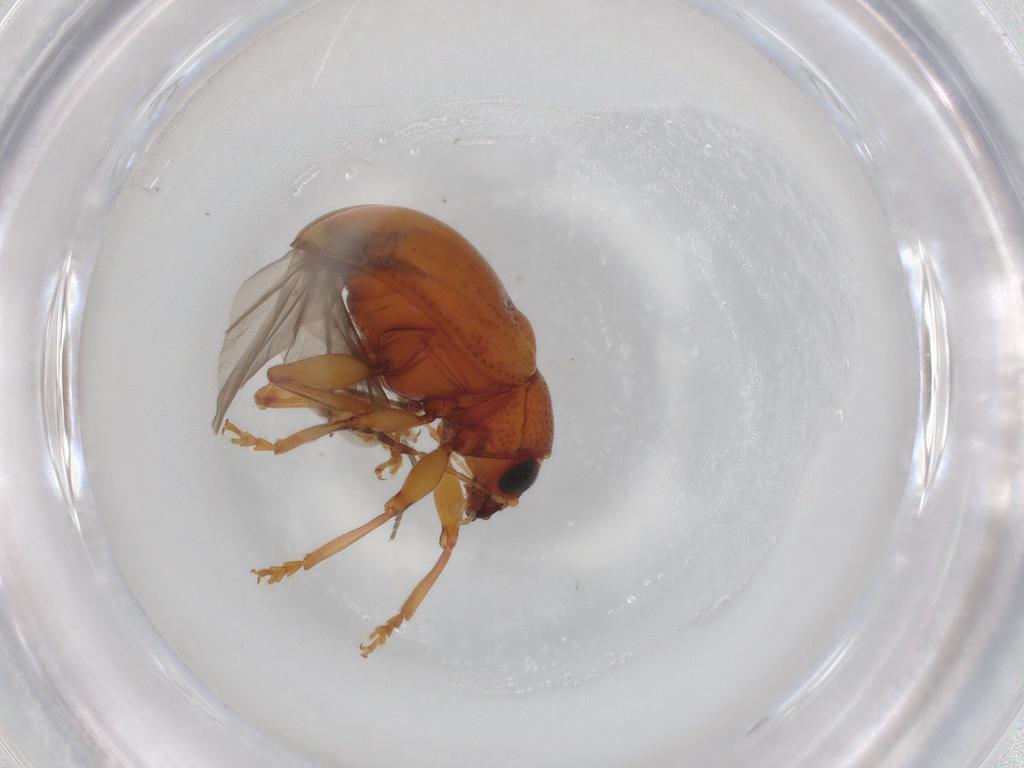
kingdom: Animalia
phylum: Arthropoda
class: Insecta
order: Coleoptera
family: Chrysomelidae
